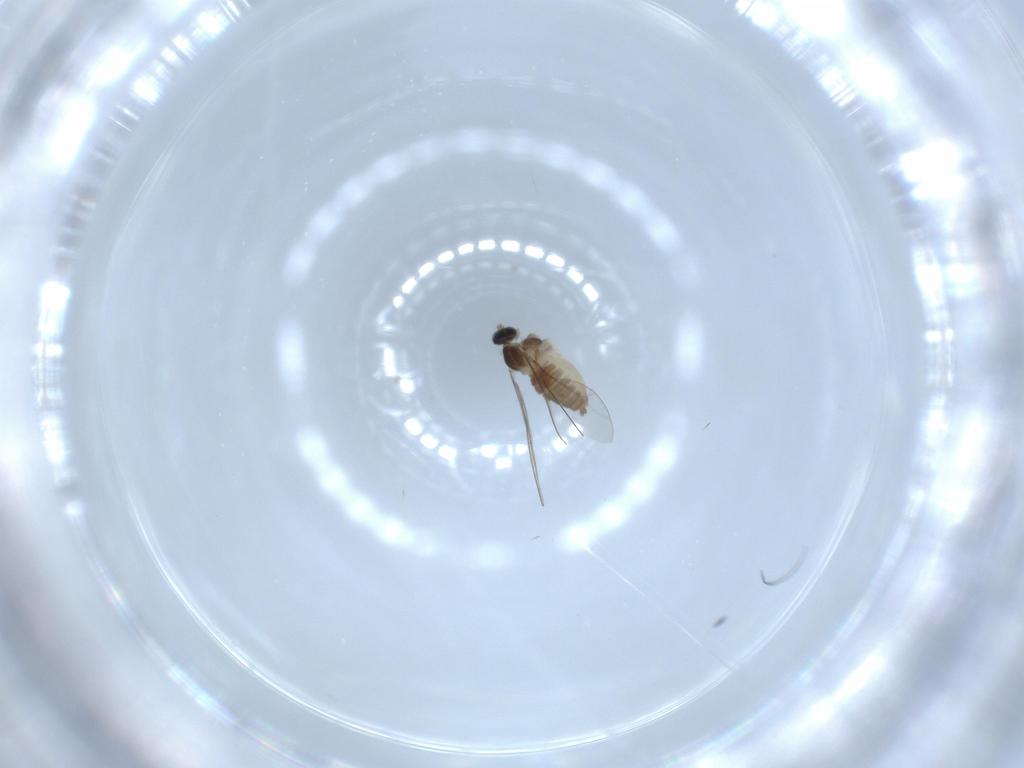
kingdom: Animalia
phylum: Arthropoda
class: Insecta
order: Diptera
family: Cecidomyiidae
